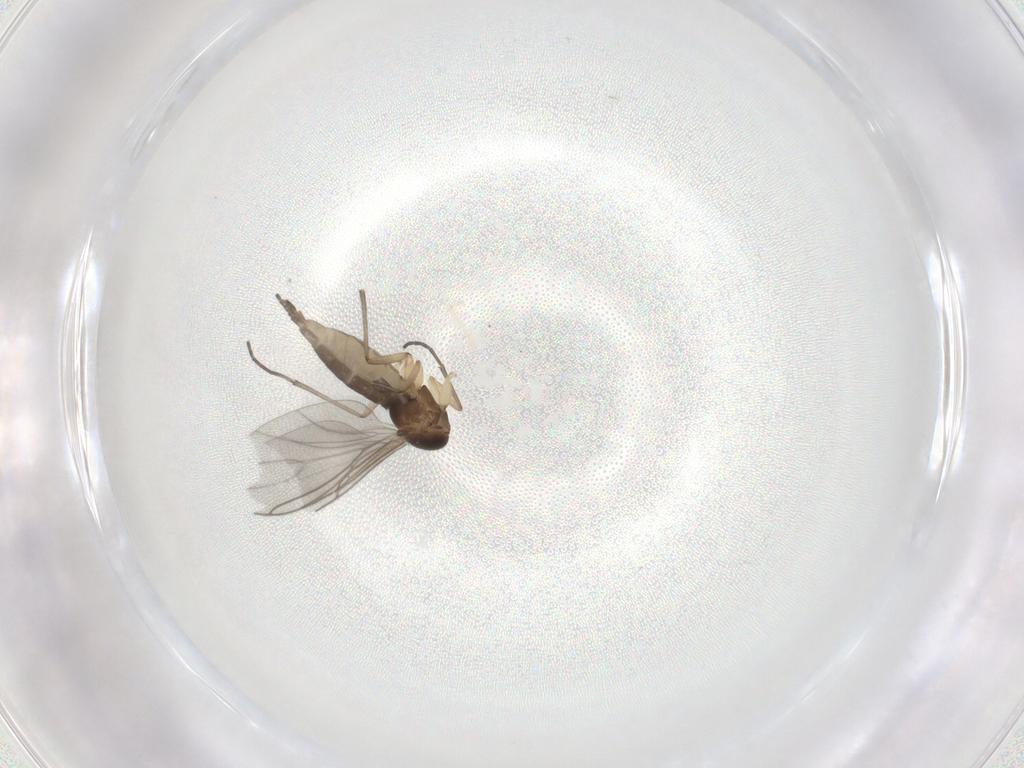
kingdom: Animalia
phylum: Arthropoda
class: Insecta
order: Diptera
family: Sciaridae
